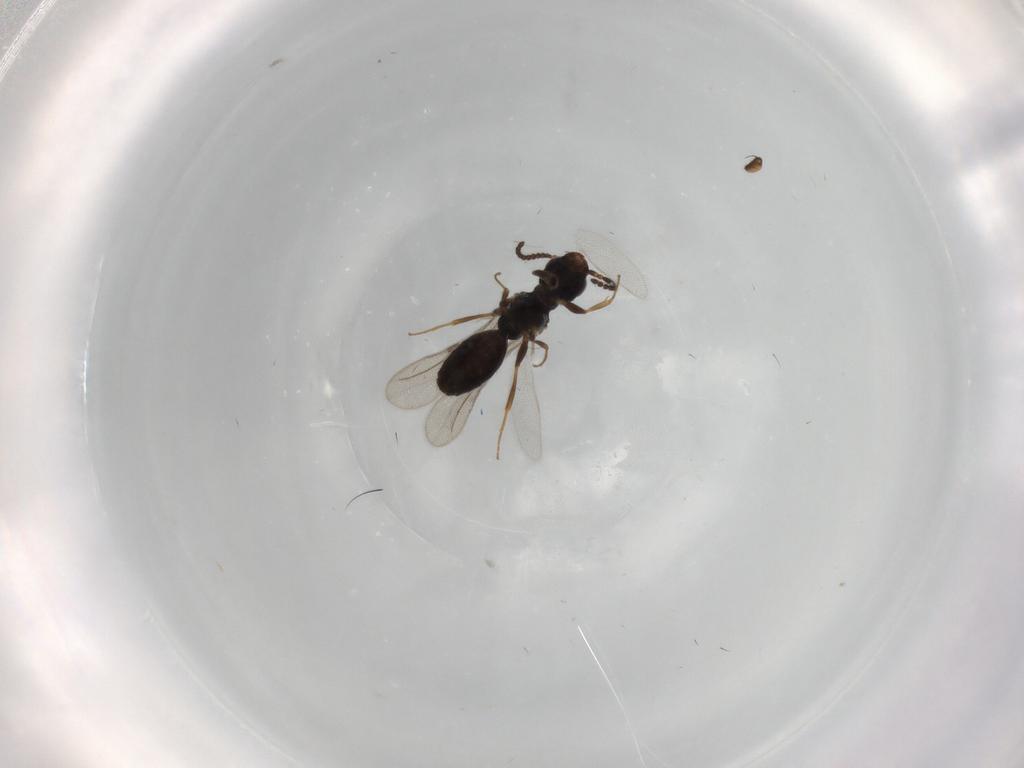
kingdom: Animalia
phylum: Arthropoda
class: Insecta
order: Hymenoptera
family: Bethylidae
